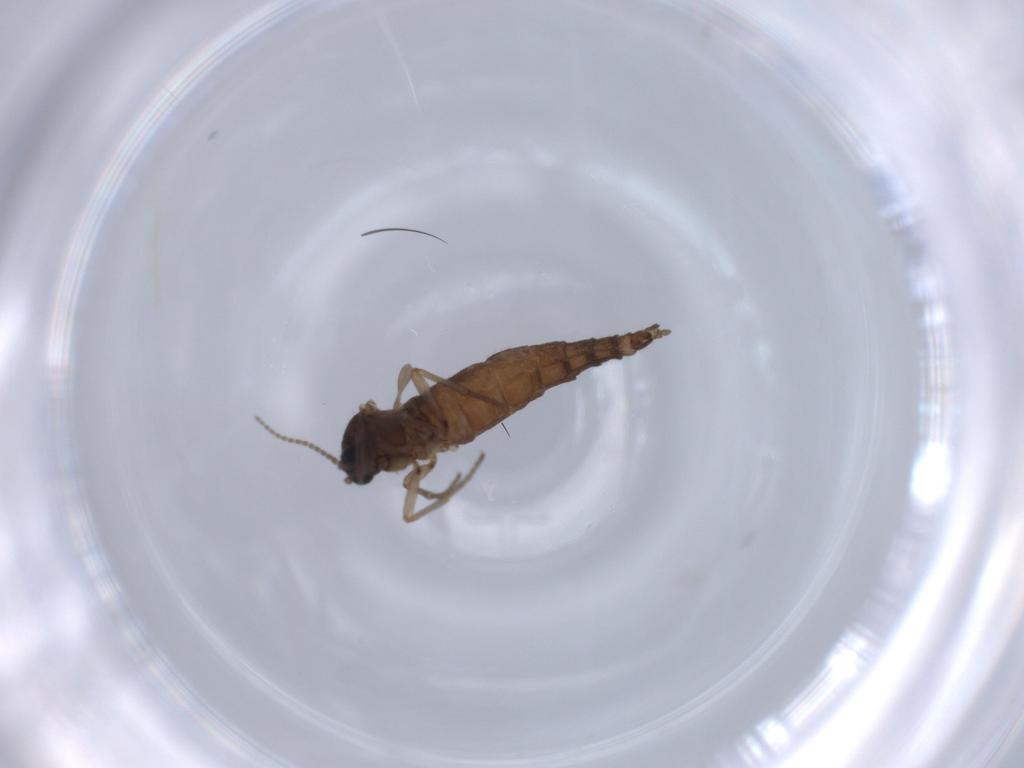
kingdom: Animalia
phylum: Arthropoda
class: Insecta
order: Diptera
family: Sciaridae
